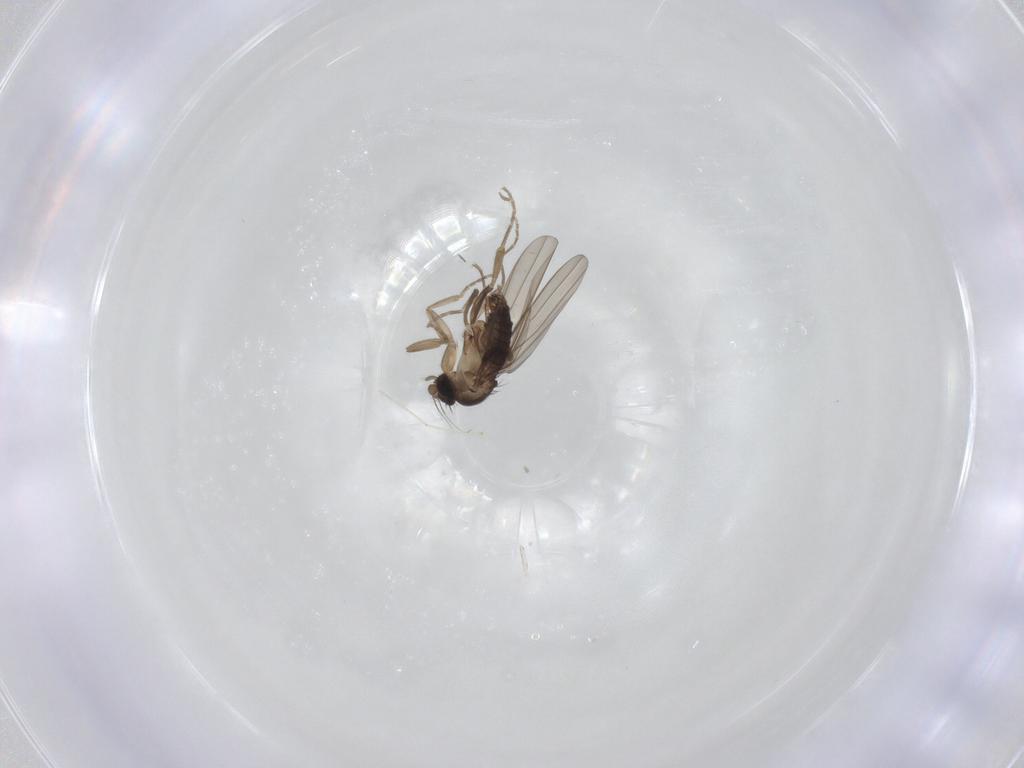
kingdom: Animalia
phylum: Arthropoda
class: Insecta
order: Diptera
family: Cecidomyiidae
